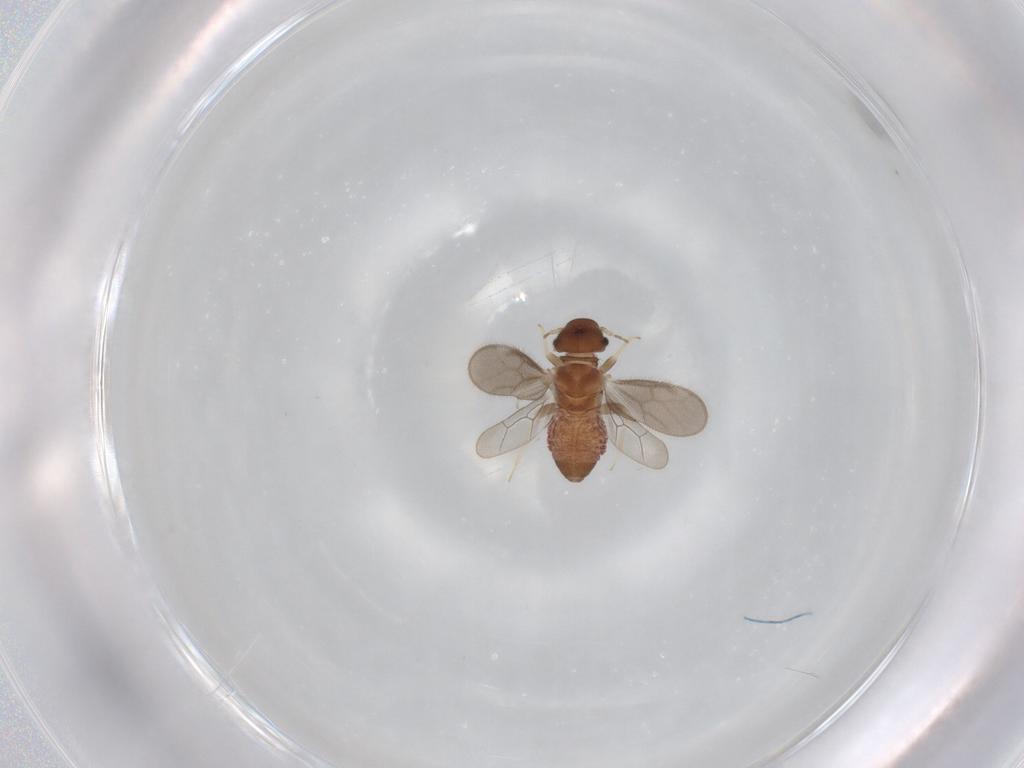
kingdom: Animalia
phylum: Arthropoda
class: Insecta
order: Psocodea
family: Archipsocidae
